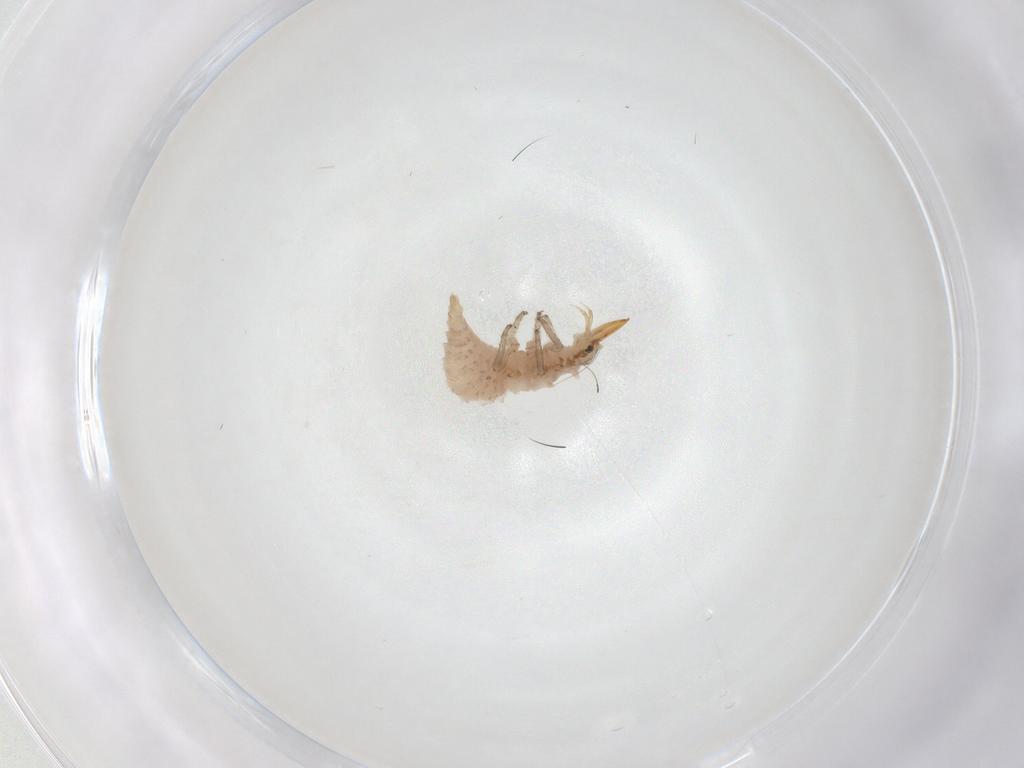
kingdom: Animalia
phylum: Arthropoda
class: Insecta
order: Neuroptera
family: Chrysopidae
